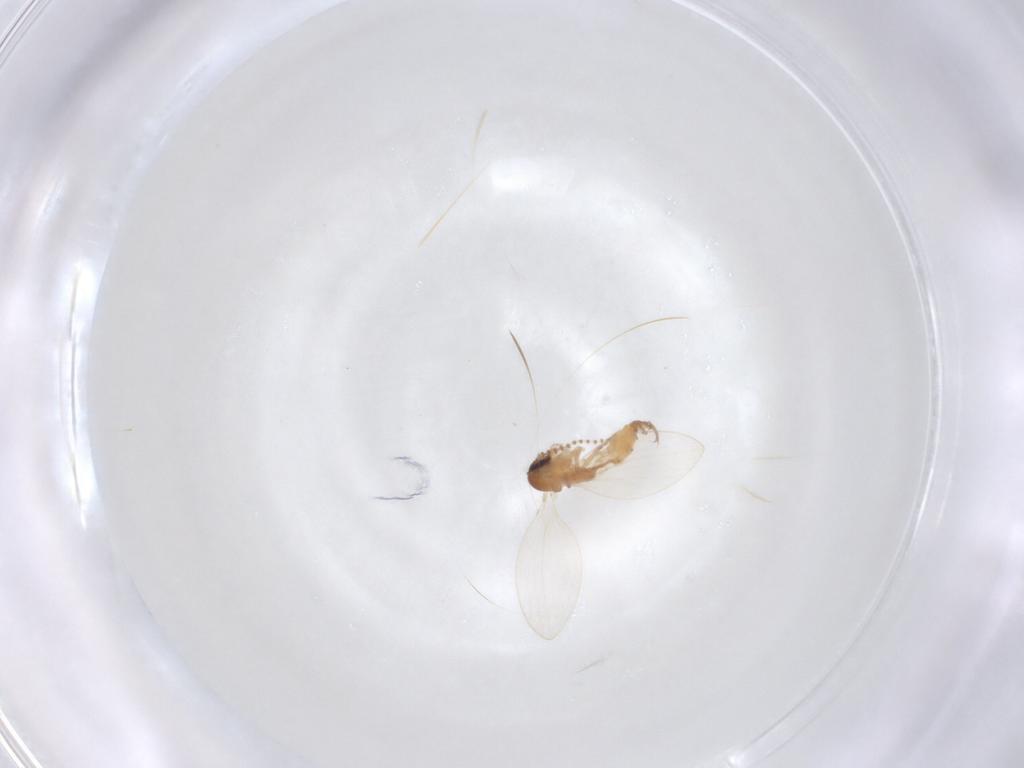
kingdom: Animalia
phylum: Arthropoda
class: Insecta
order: Diptera
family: Asteiidae
